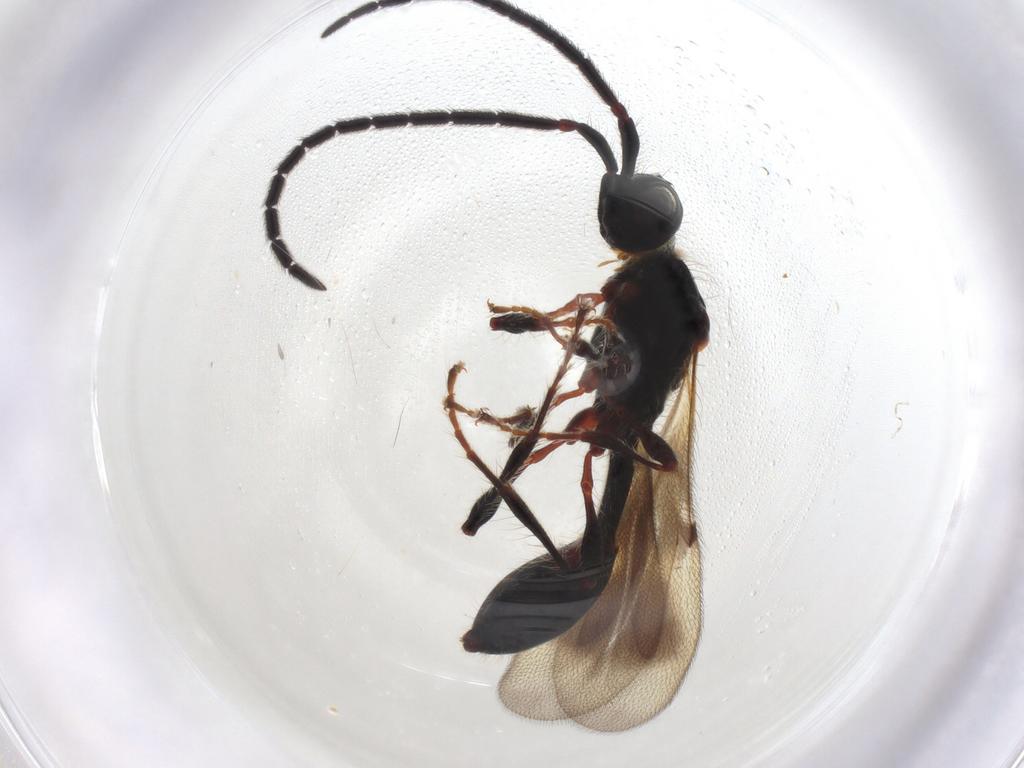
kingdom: Animalia
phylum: Arthropoda
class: Insecta
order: Hymenoptera
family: Diapriidae
